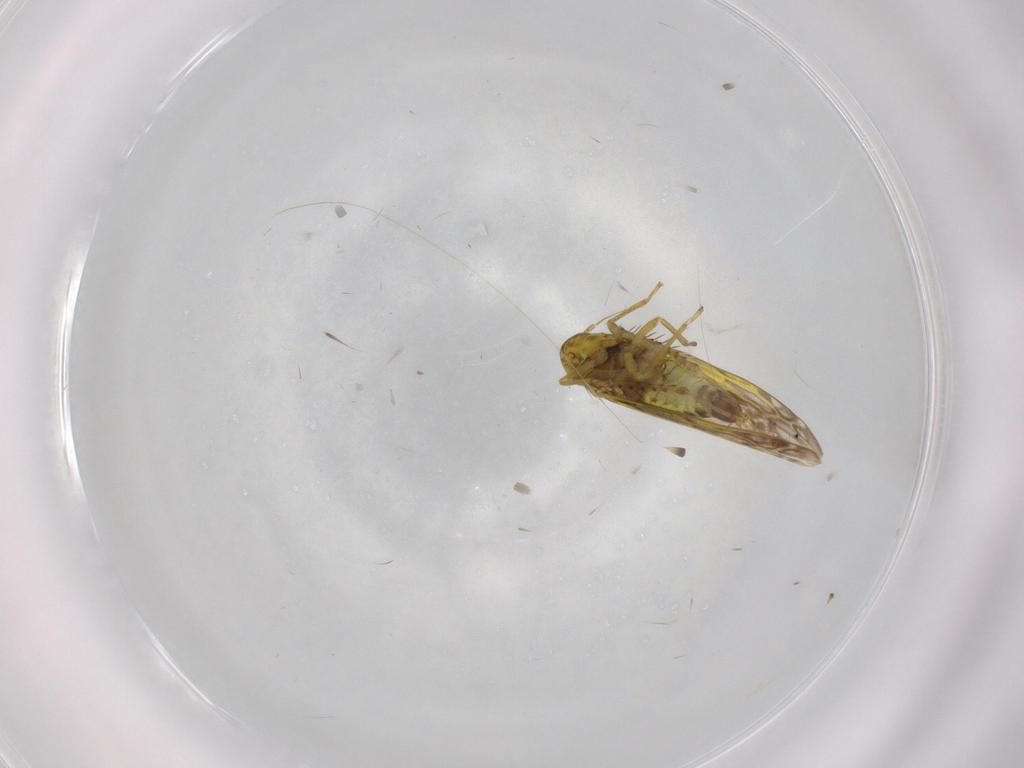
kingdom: Animalia
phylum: Arthropoda
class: Insecta
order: Hemiptera
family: Cicadellidae
